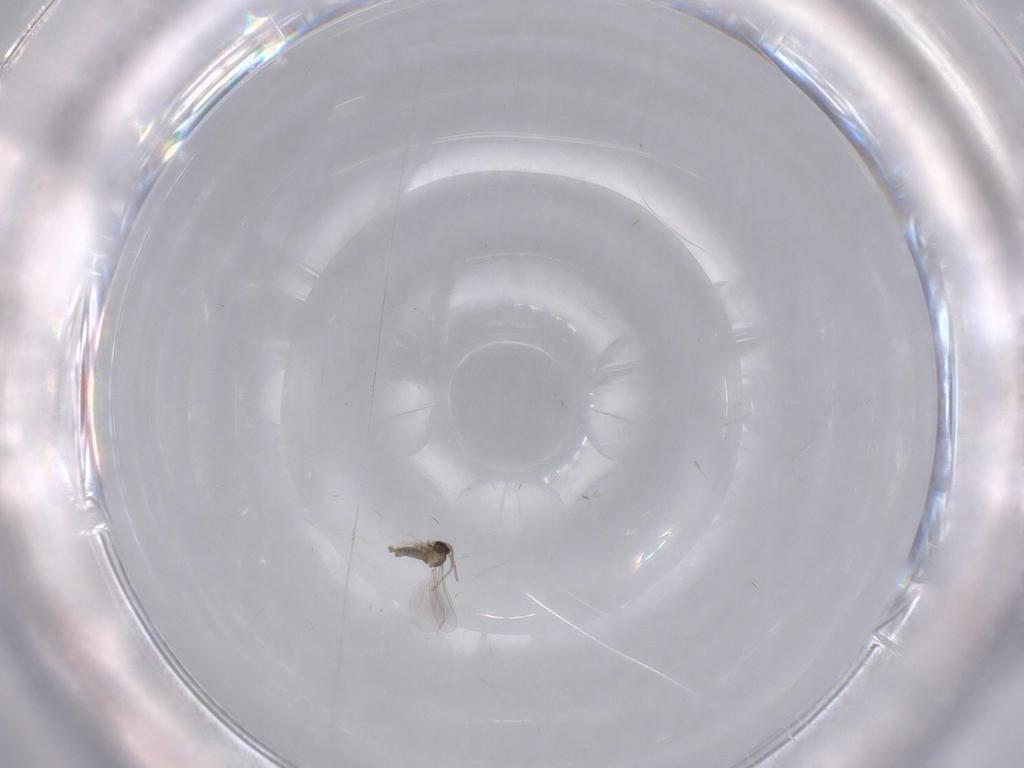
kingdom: Animalia
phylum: Arthropoda
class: Insecta
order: Diptera
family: Cecidomyiidae
